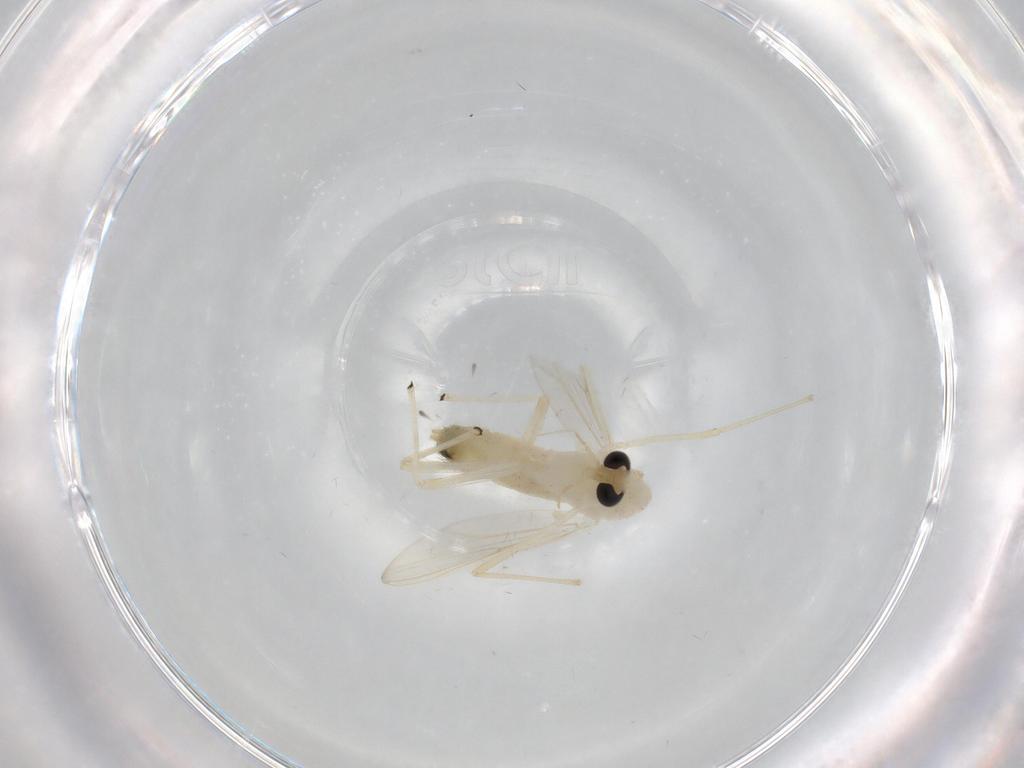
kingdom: Animalia
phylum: Arthropoda
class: Insecta
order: Diptera
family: Chironomidae
